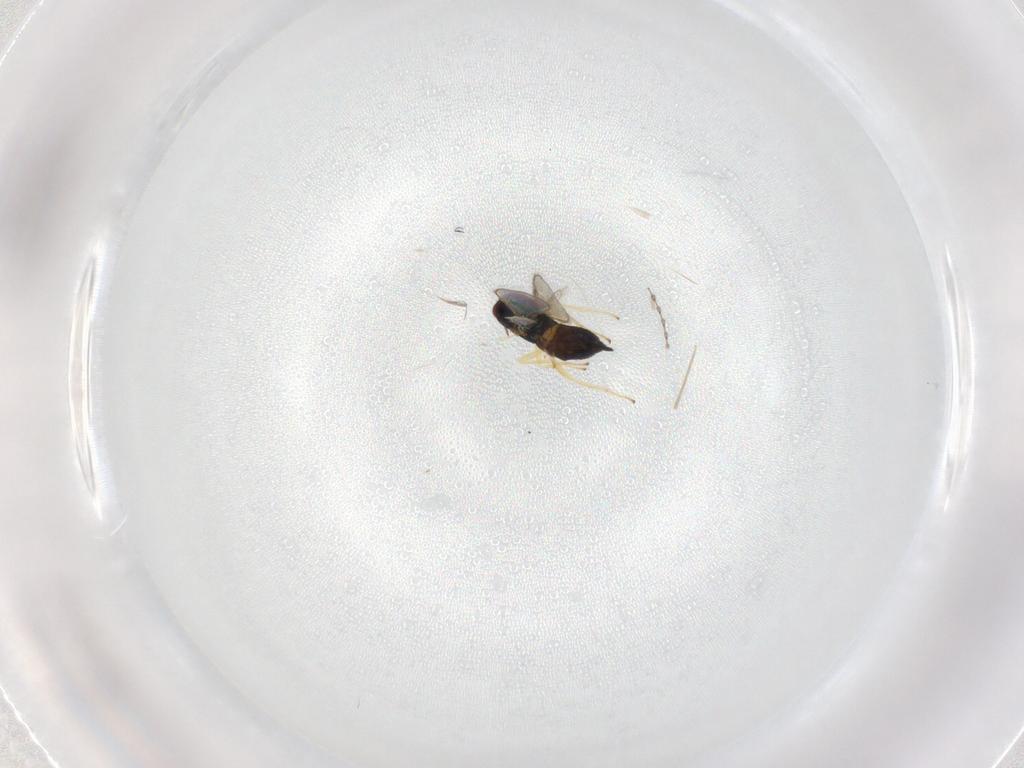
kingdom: Animalia
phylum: Arthropoda
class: Insecta
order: Hymenoptera
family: Eulophidae
